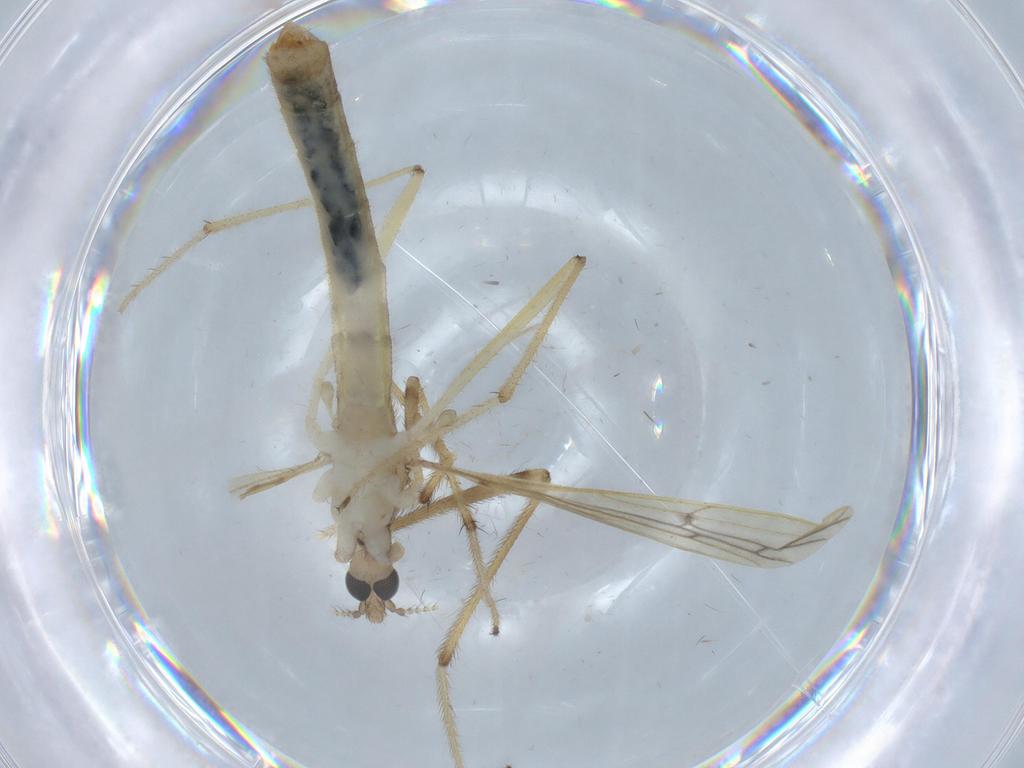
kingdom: Animalia
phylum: Arthropoda
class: Insecta
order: Diptera
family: Limoniidae
